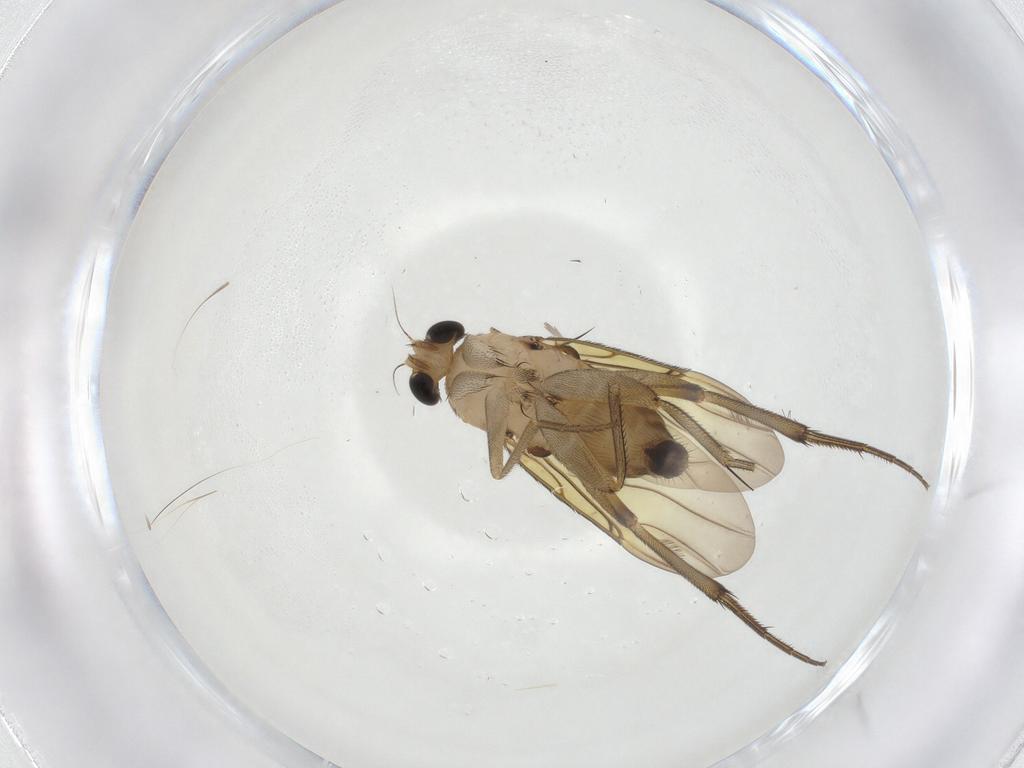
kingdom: Animalia
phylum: Arthropoda
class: Insecta
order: Diptera
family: Phoridae
